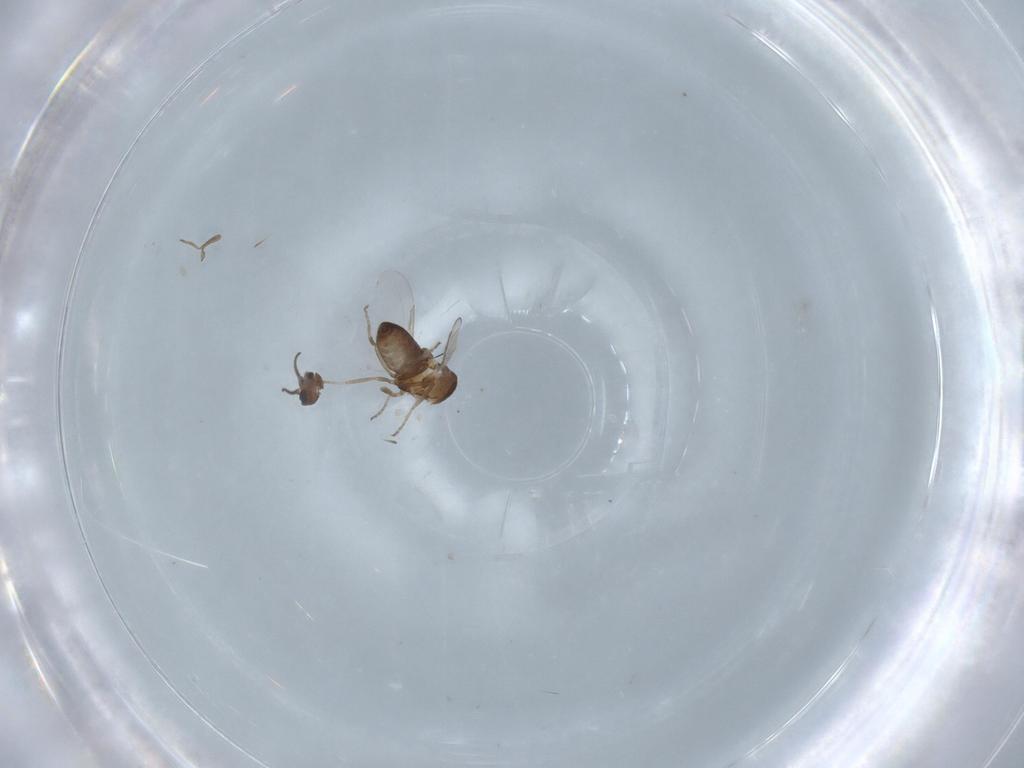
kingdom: Animalia
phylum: Arthropoda
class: Insecta
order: Diptera
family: Ceratopogonidae
